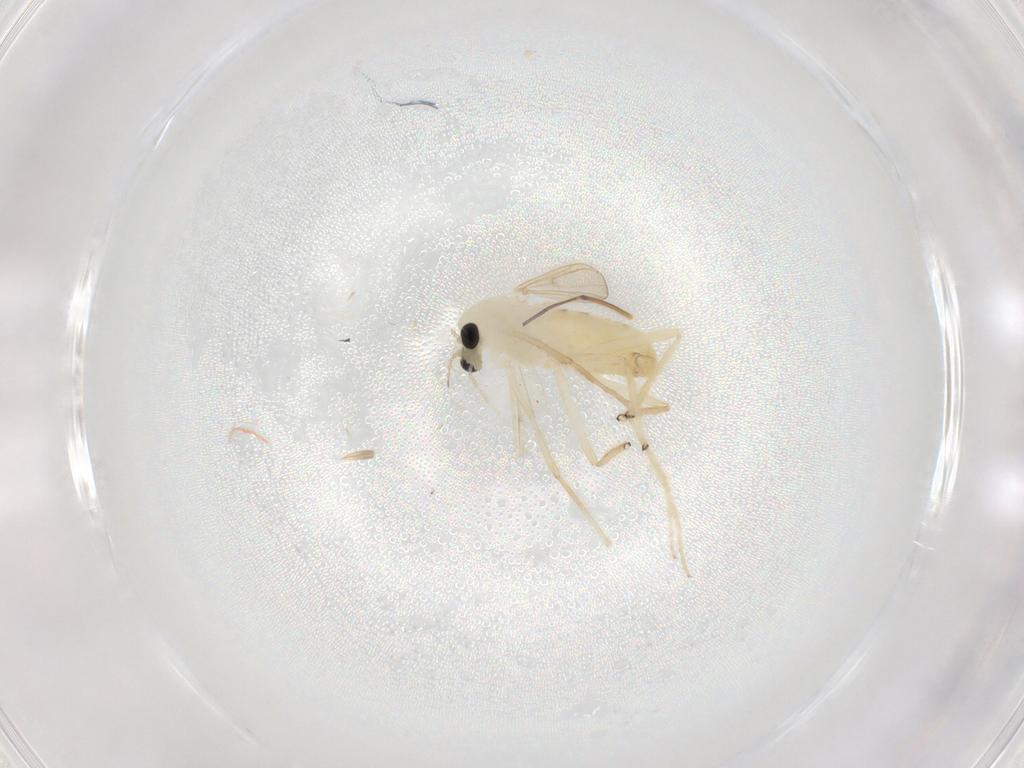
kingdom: Animalia
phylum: Arthropoda
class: Insecta
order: Diptera
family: Chironomidae
